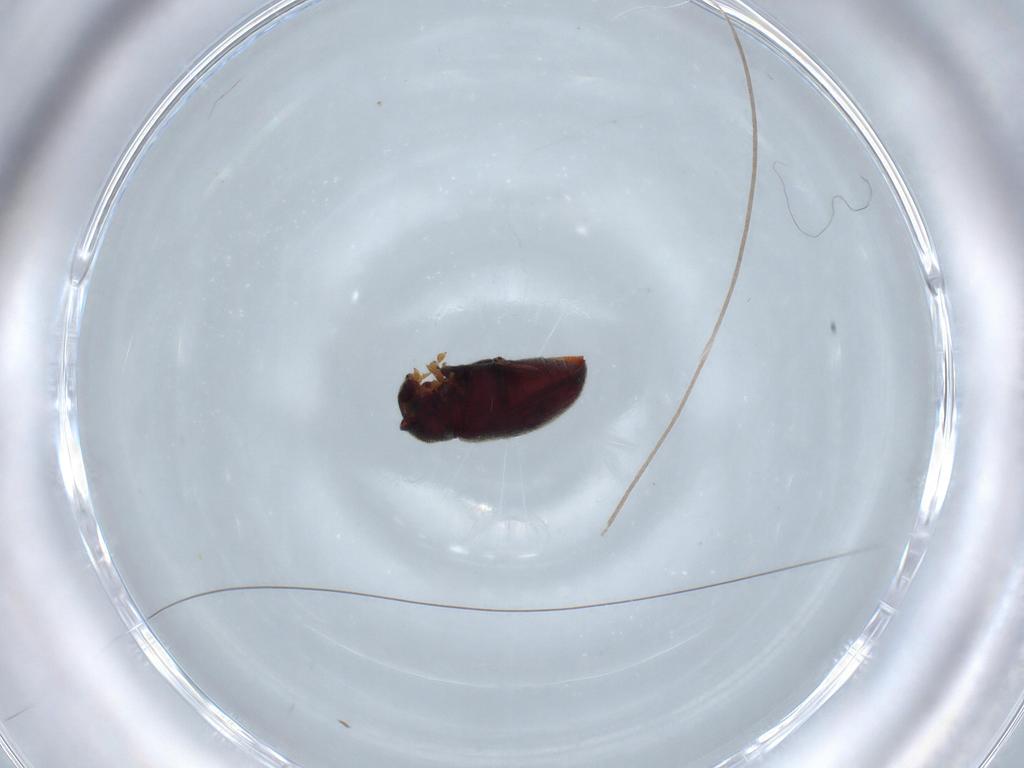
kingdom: Animalia
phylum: Arthropoda
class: Insecta
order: Coleoptera
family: Anobiidae
